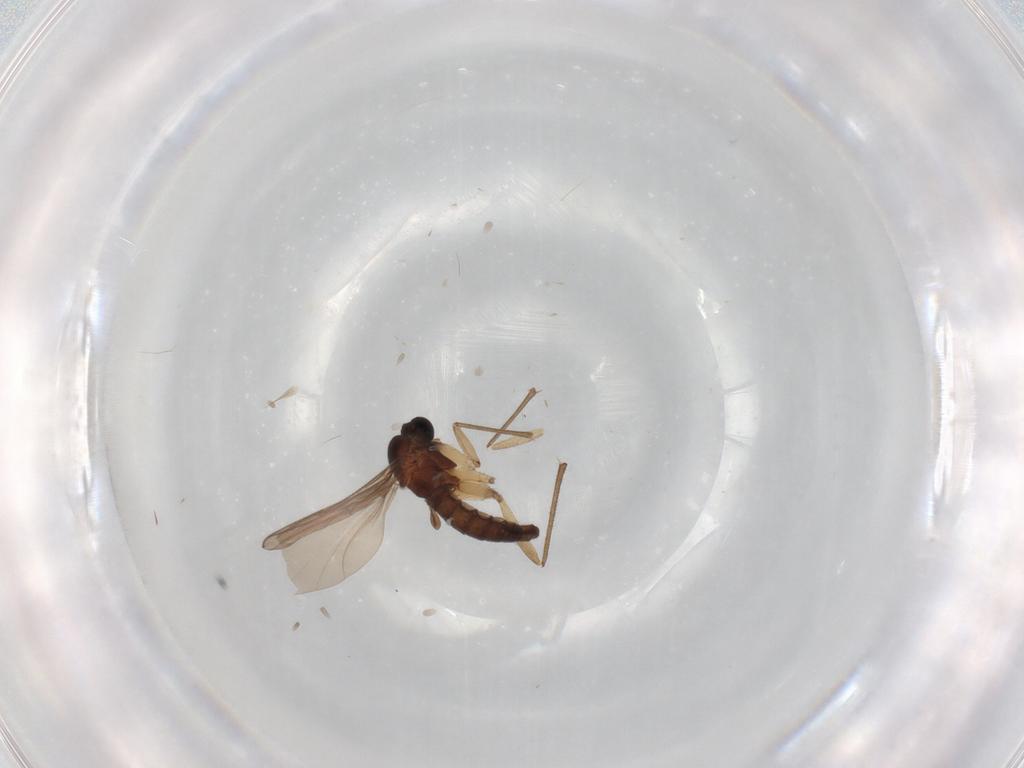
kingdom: Animalia
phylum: Arthropoda
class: Insecta
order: Diptera
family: Sciaridae
